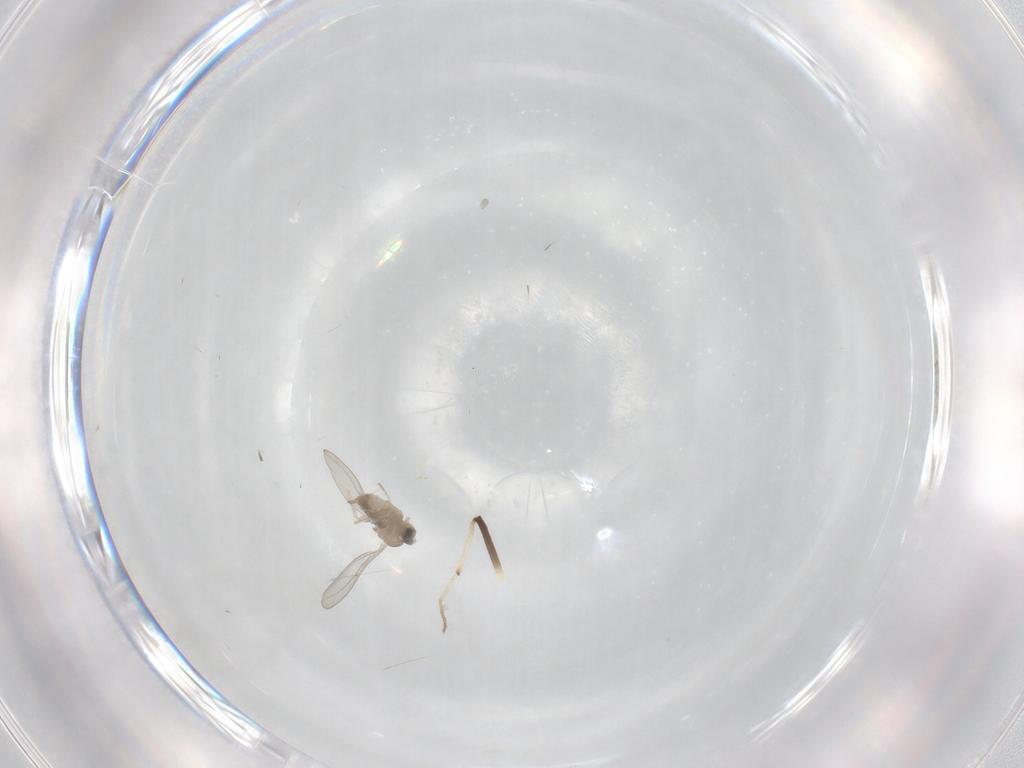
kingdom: Animalia
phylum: Arthropoda
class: Insecta
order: Diptera
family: Cecidomyiidae
